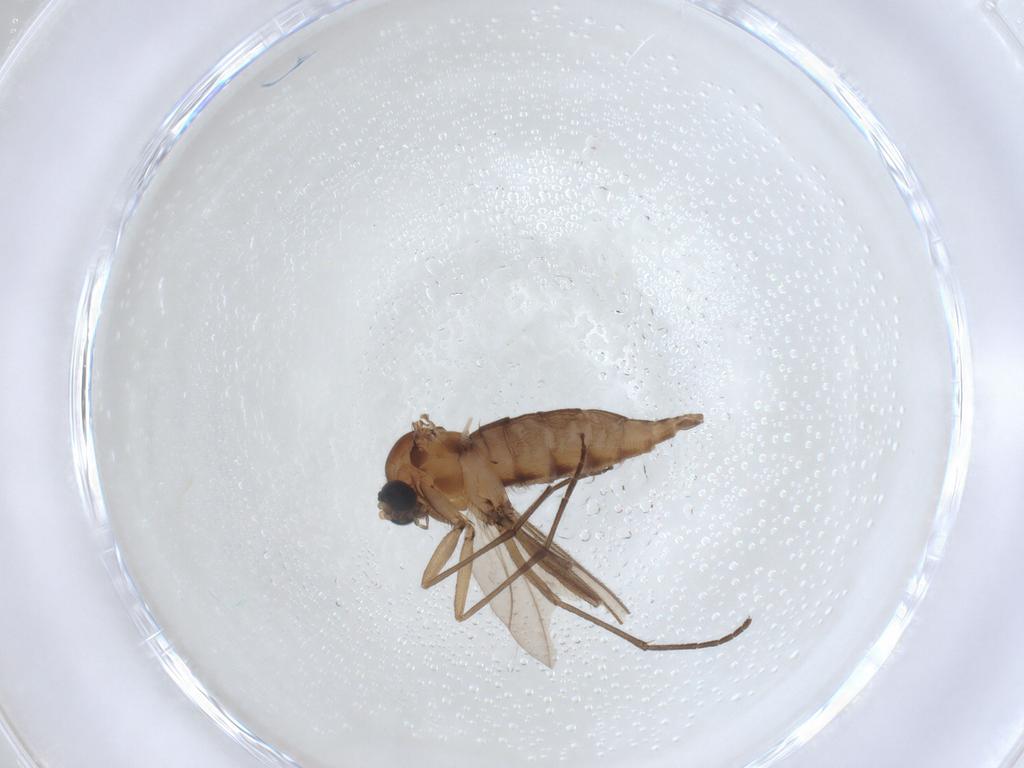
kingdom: Animalia
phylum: Arthropoda
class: Insecta
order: Diptera
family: Sciaridae
